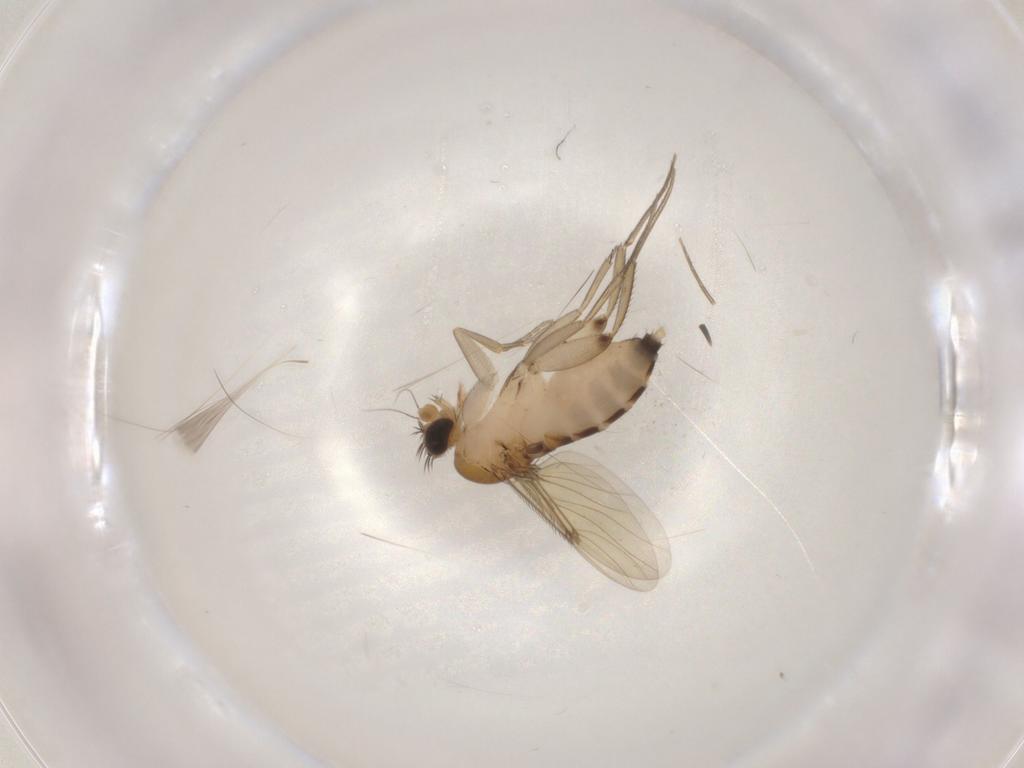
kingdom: Animalia
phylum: Arthropoda
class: Insecta
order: Diptera
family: Phoridae
